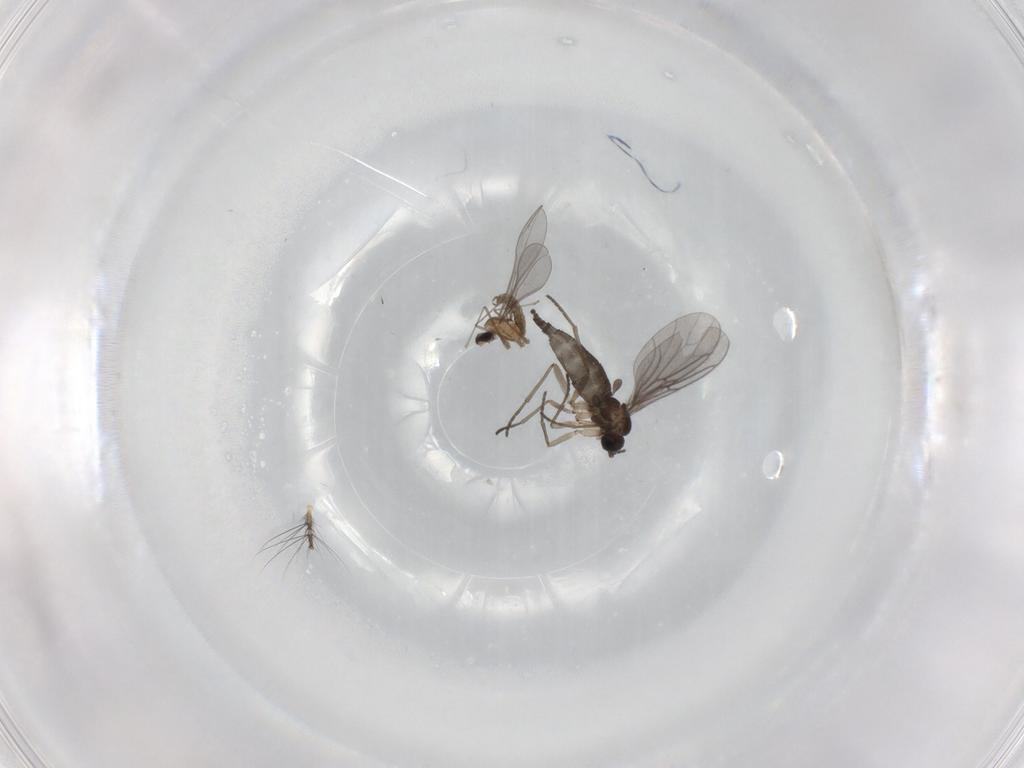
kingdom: Animalia
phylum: Arthropoda
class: Insecta
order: Diptera
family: Cecidomyiidae
